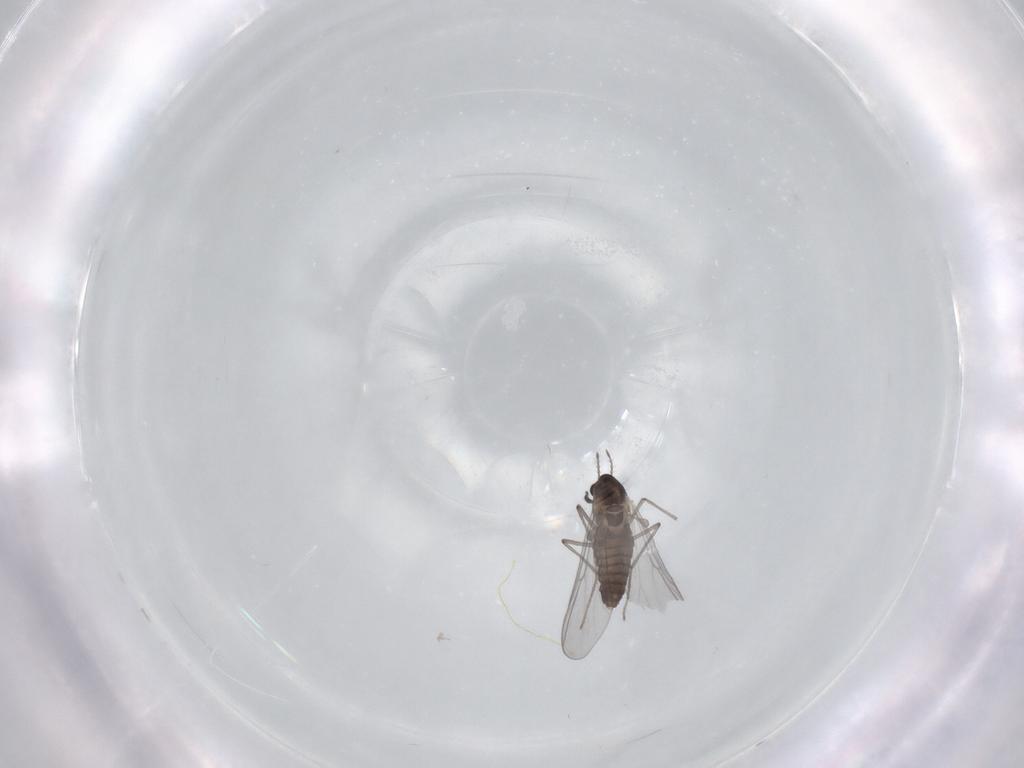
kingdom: Animalia
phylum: Arthropoda
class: Insecta
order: Diptera
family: Chironomidae
